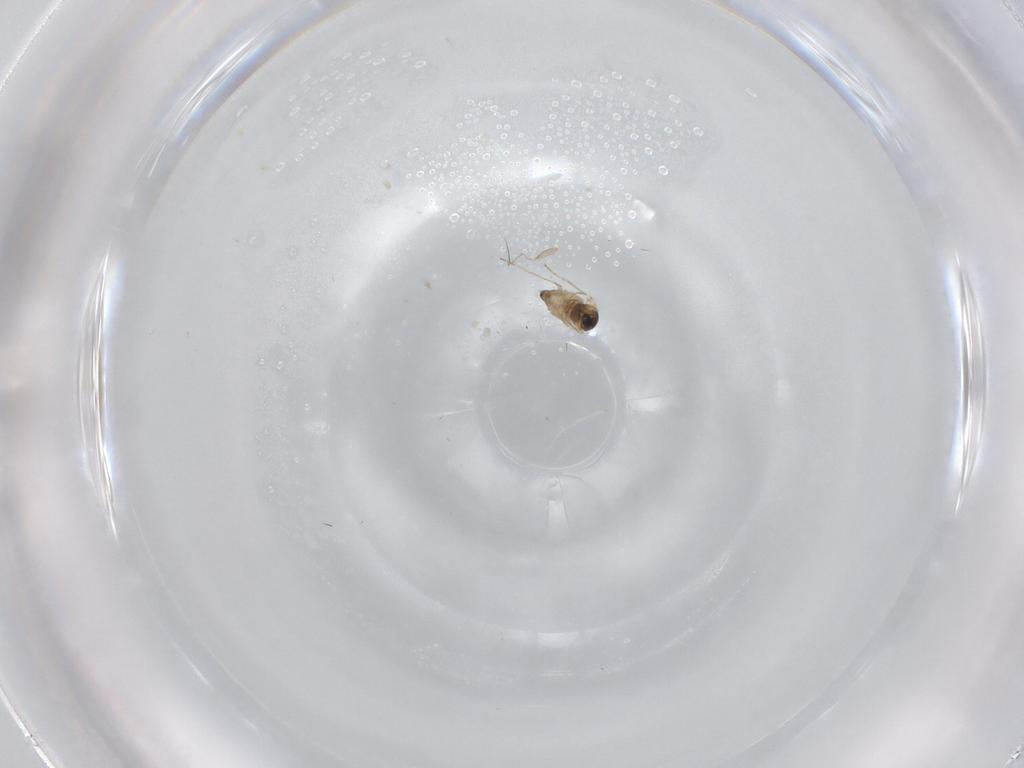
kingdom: Animalia
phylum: Arthropoda
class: Insecta
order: Diptera
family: Cecidomyiidae
